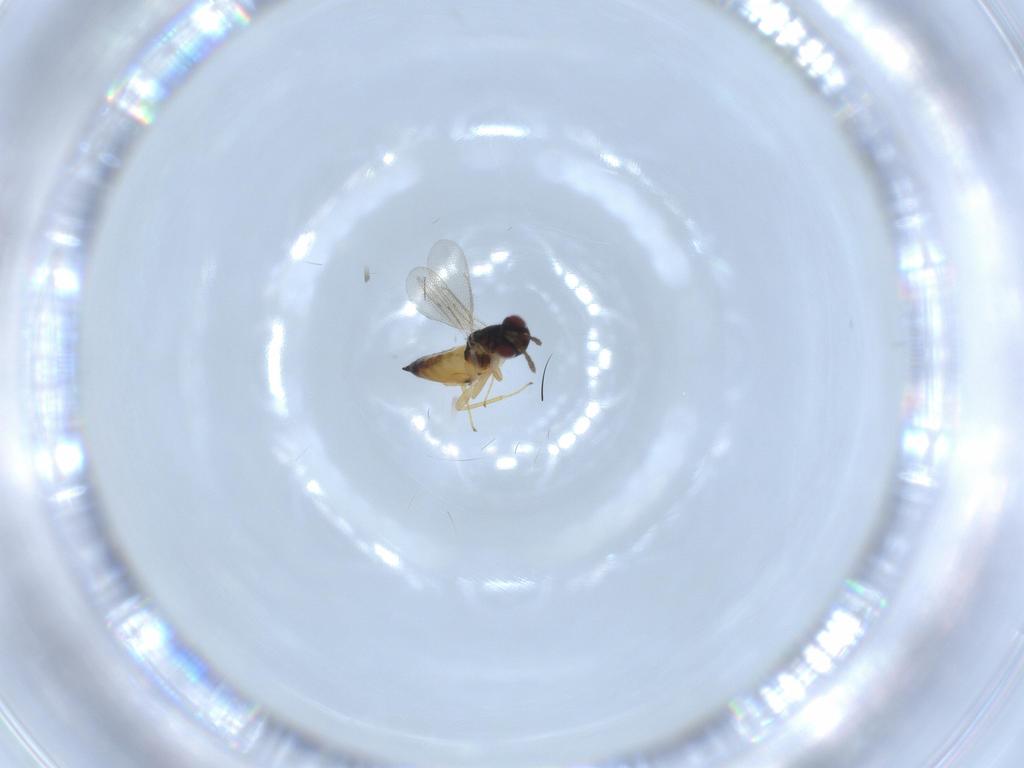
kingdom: Animalia
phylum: Arthropoda
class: Insecta
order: Hymenoptera
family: Eulophidae
